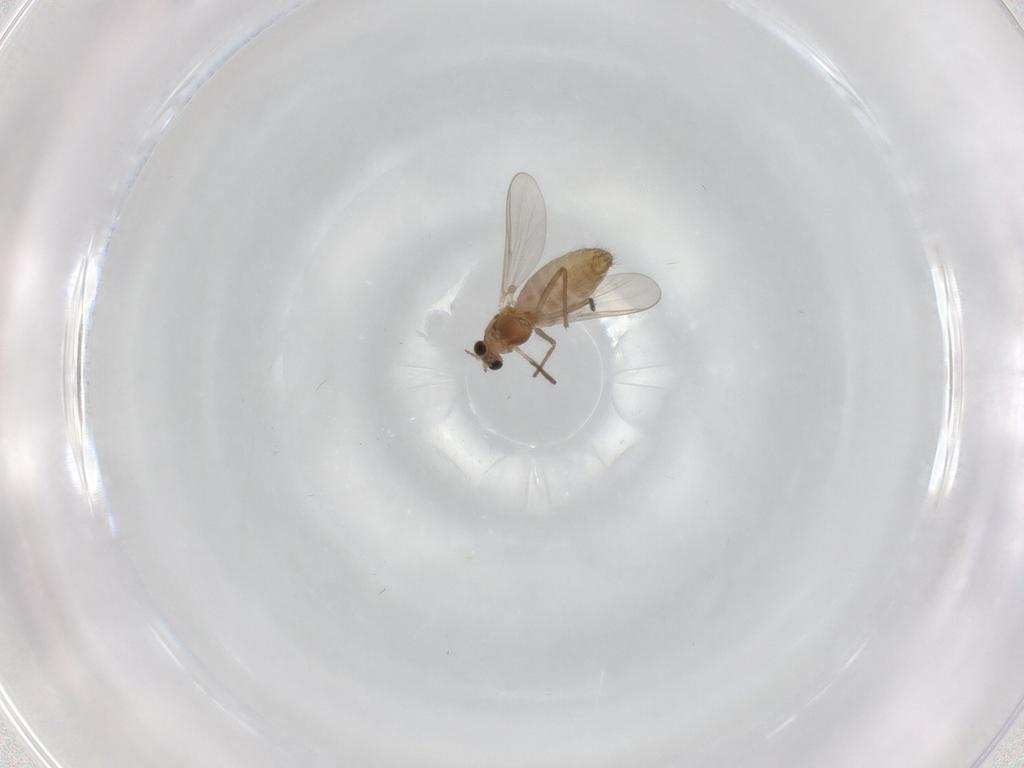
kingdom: Animalia
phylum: Arthropoda
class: Insecta
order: Diptera
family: Chironomidae
